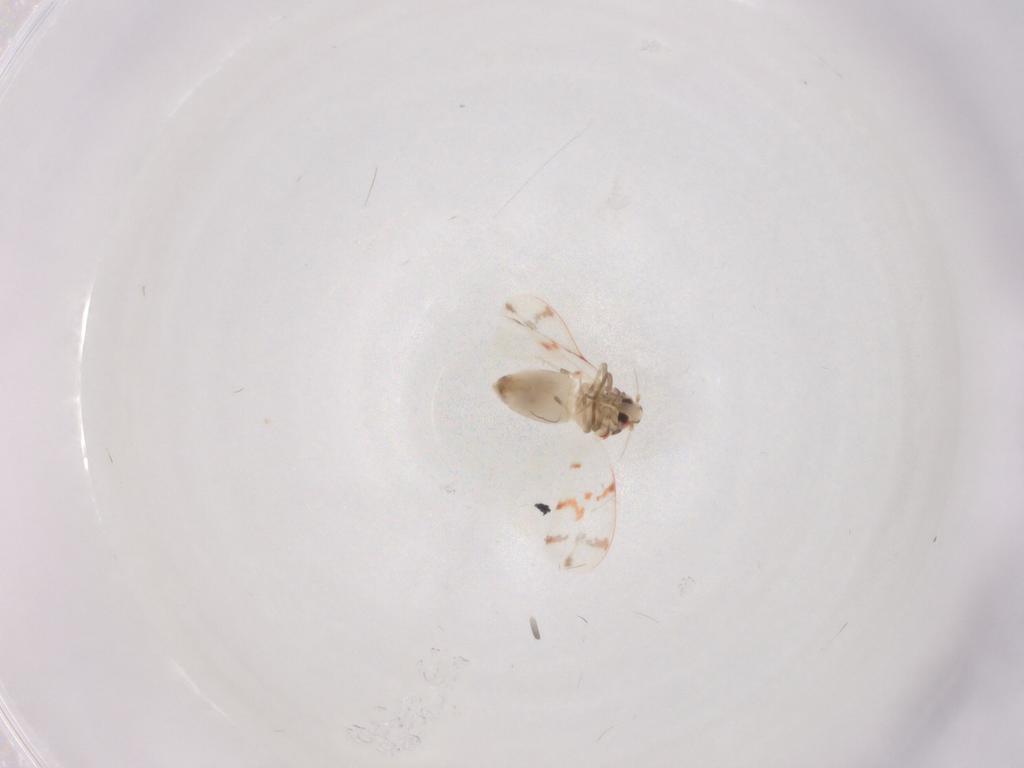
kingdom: Animalia
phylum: Arthropoda
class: Insecta
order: Hemiptera
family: Aleyrodidae
